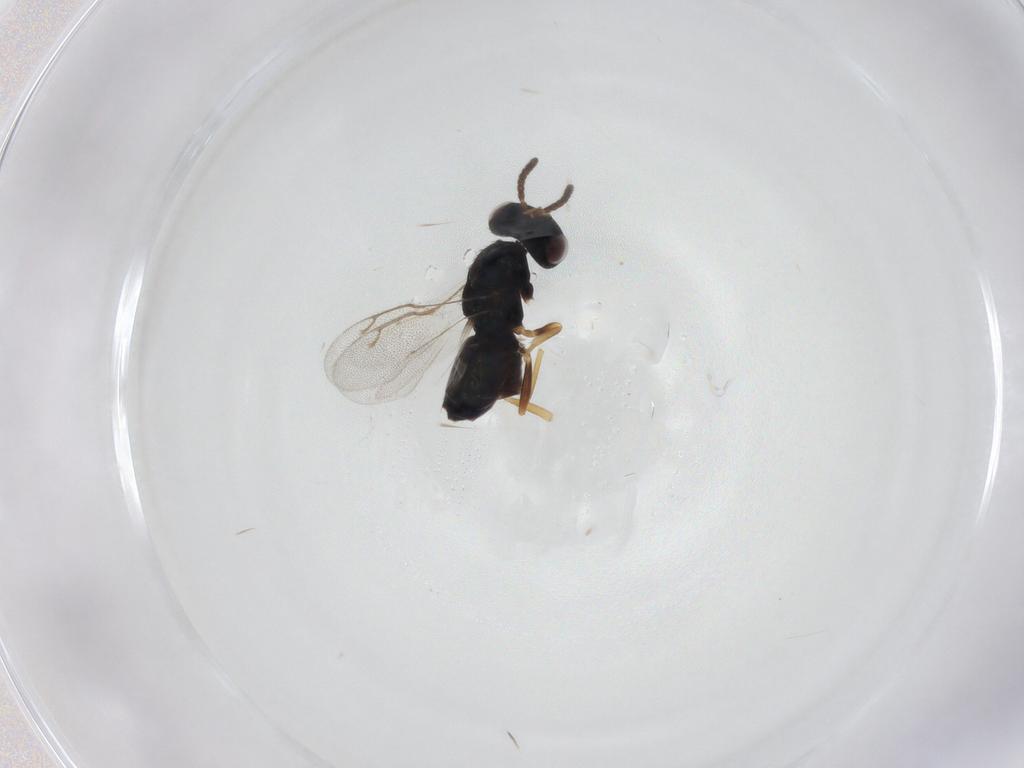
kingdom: Animalia
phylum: Arthropoda
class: Insecta
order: Hymenoptera
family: Pteromalidae
